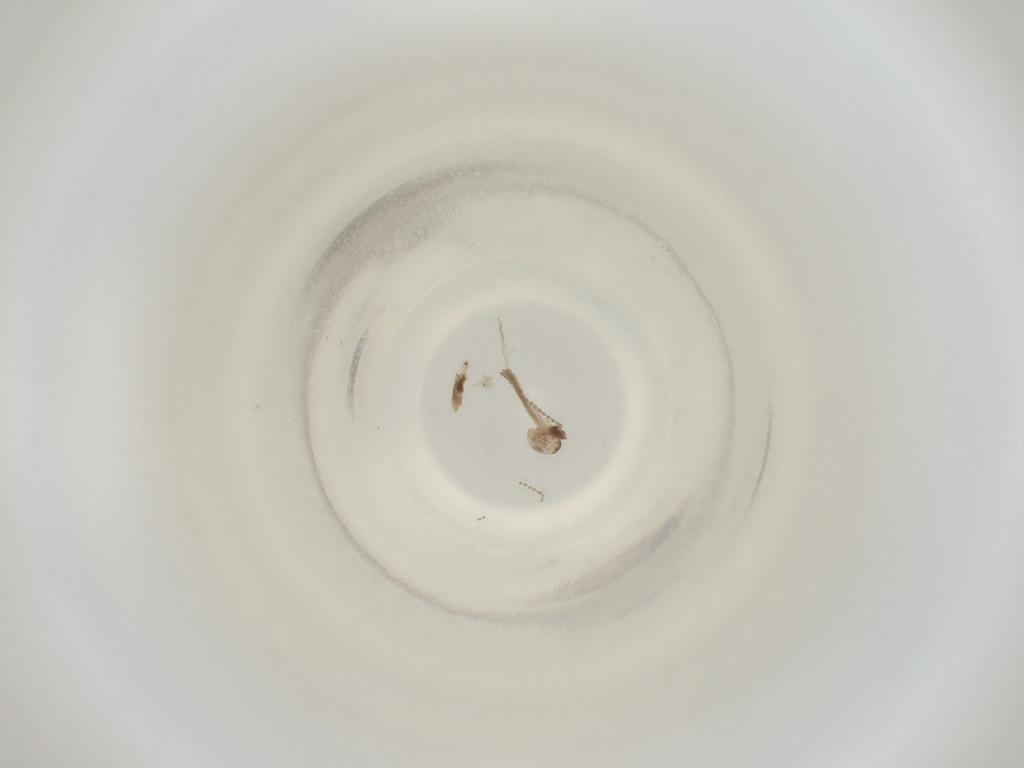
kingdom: Animalia
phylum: Arthropoda
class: Insecta
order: Diptera
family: Cecidomyiidae
